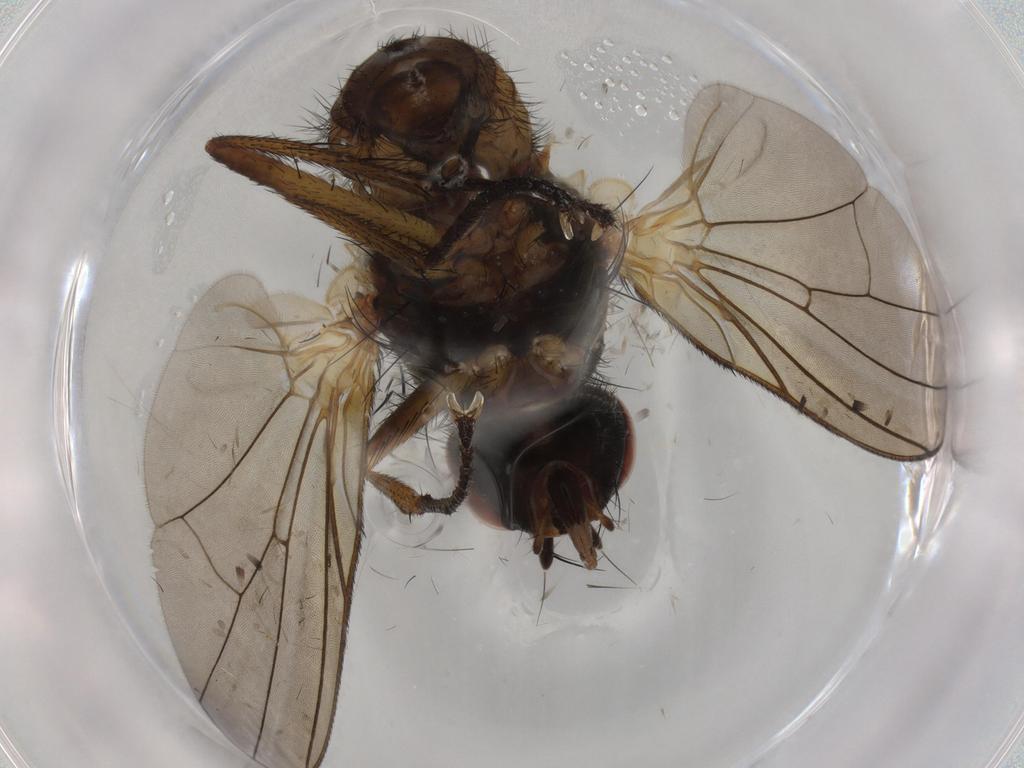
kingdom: Animalia
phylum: Arthropoda
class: Insecta
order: Diptera
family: Anthomyiidae
